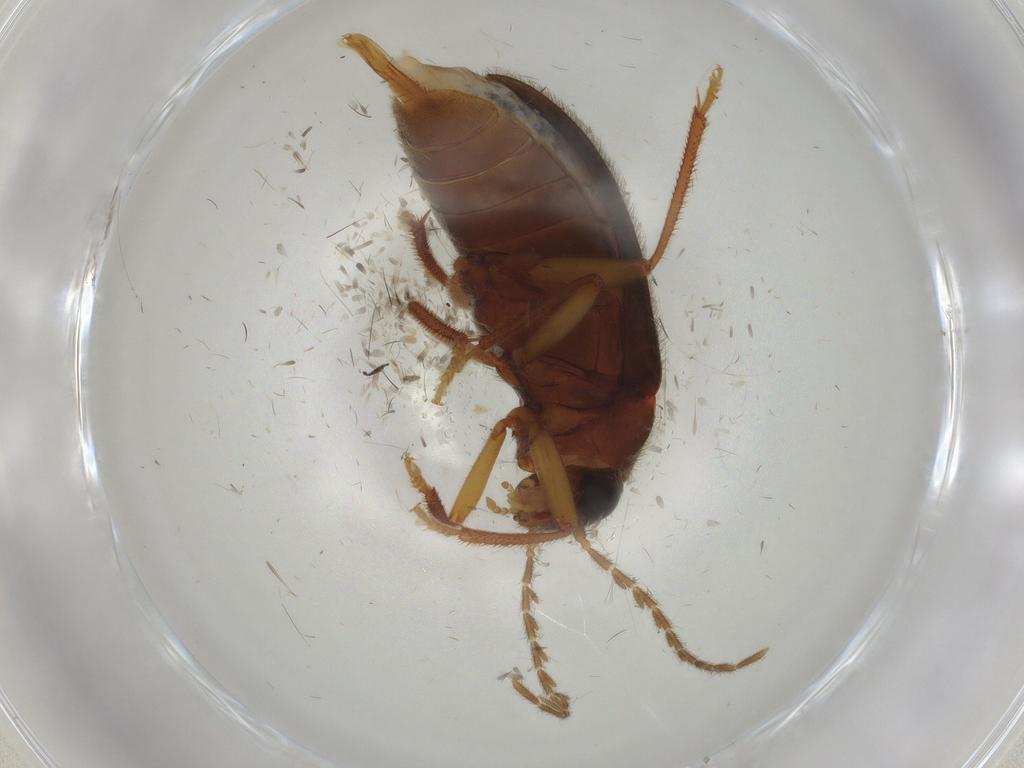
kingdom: Animalia
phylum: Arthropoda
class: Insecta
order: Coleoptera
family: Ptilodactylidae
